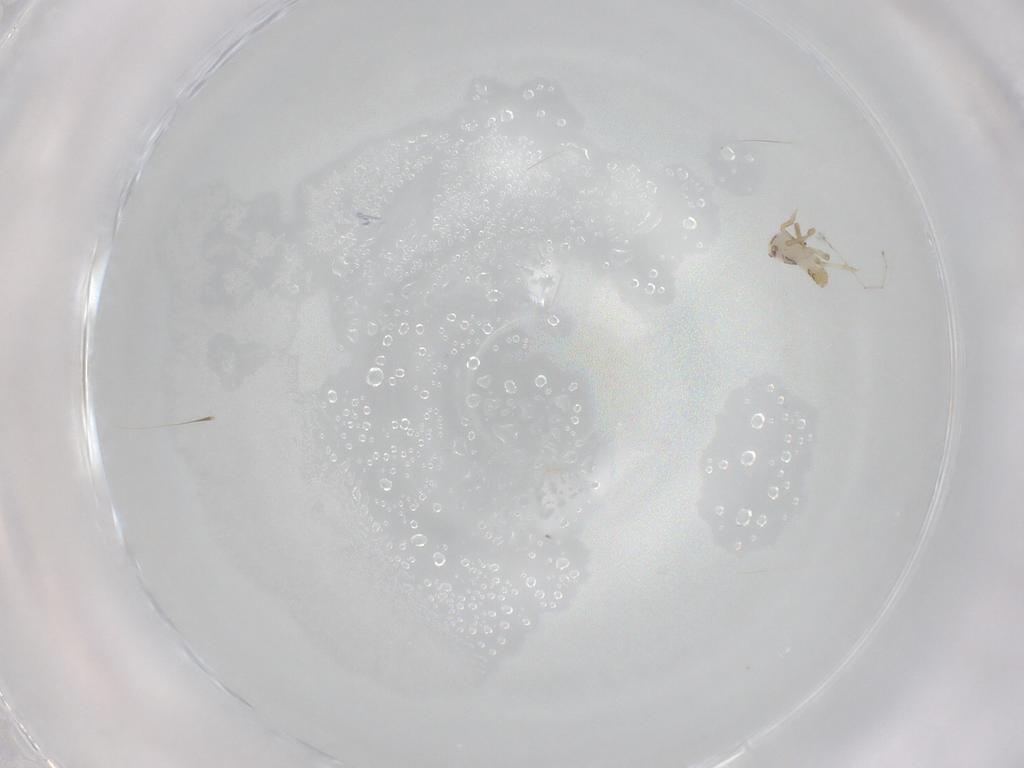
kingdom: Animalia
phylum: Arthropoda
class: Insecta
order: Hemiptera
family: Delphacidae
